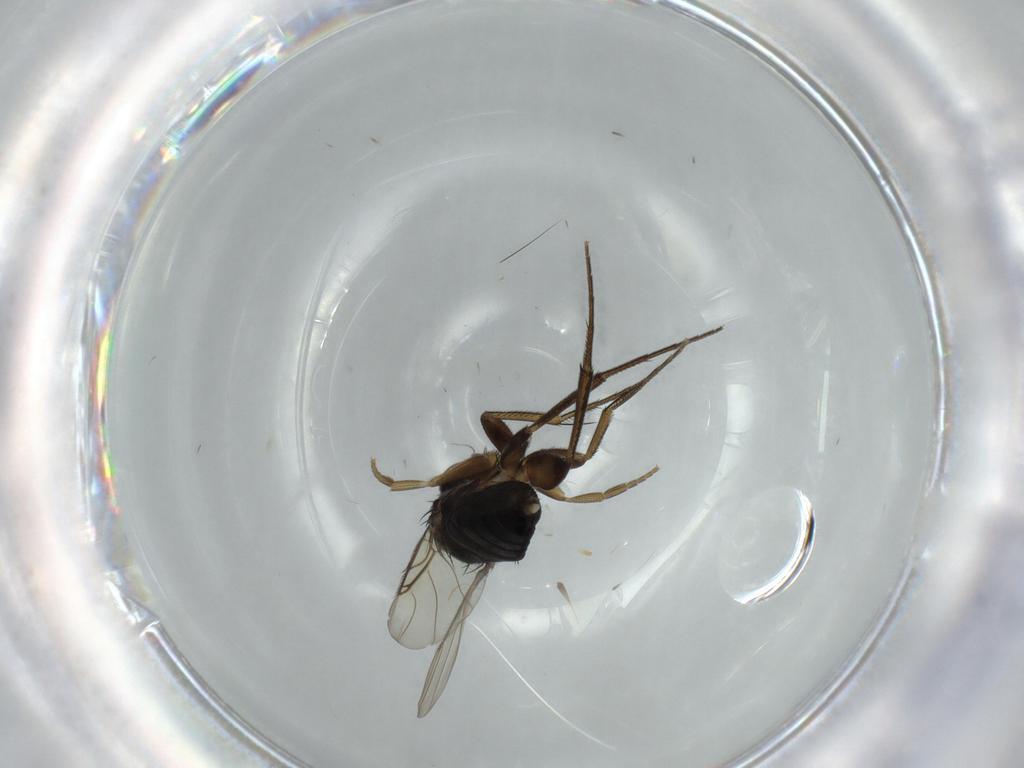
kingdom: Animalia
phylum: Arthropoda
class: Insecta
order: Diptera
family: Phoridae
